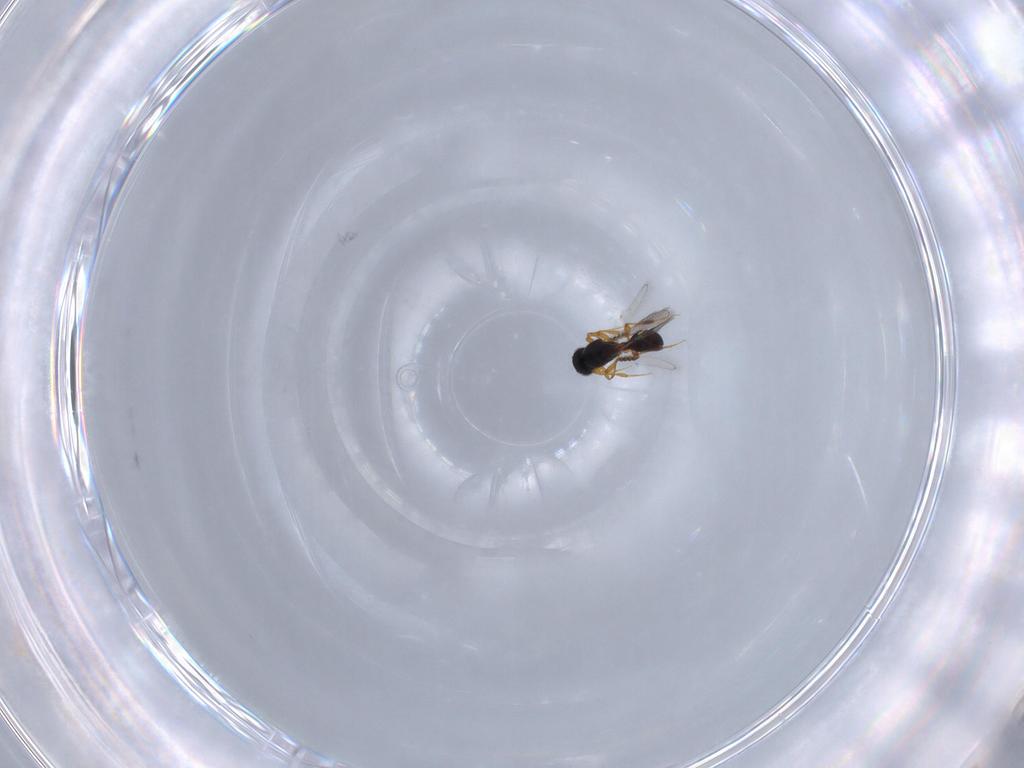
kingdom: Animalia
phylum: Arthropoda
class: Insecta
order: Hymenoptera
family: Platygastridae
